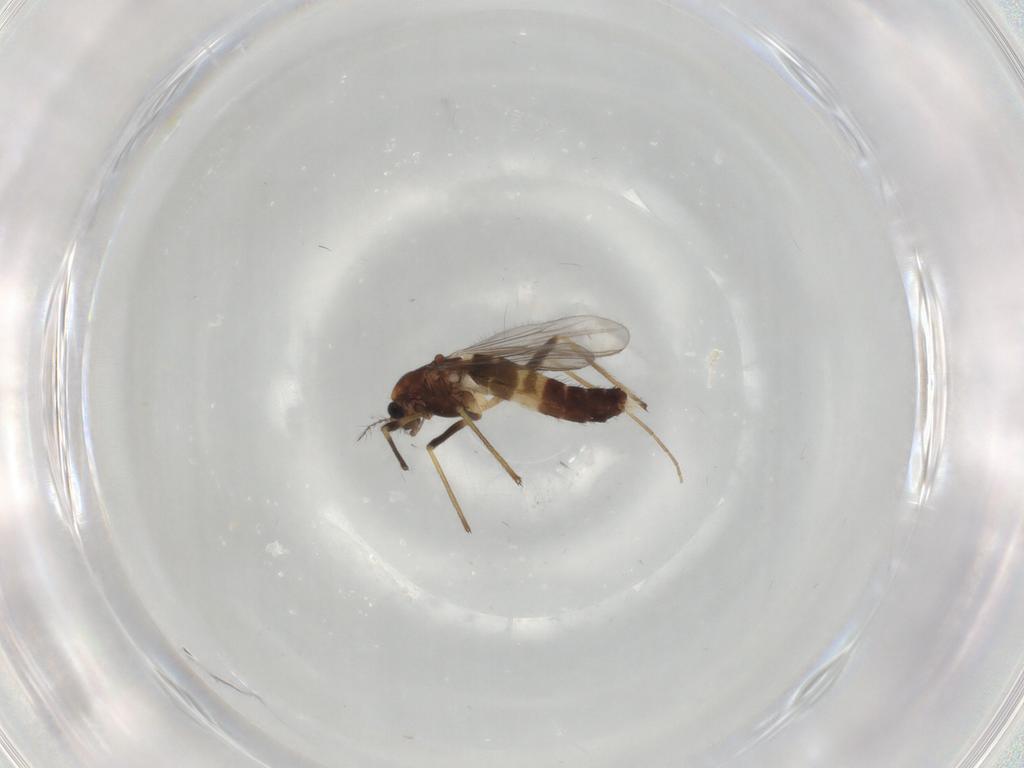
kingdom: Animalia
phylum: Arthropoda
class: Insecta
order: Diptera
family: Chironomidae
